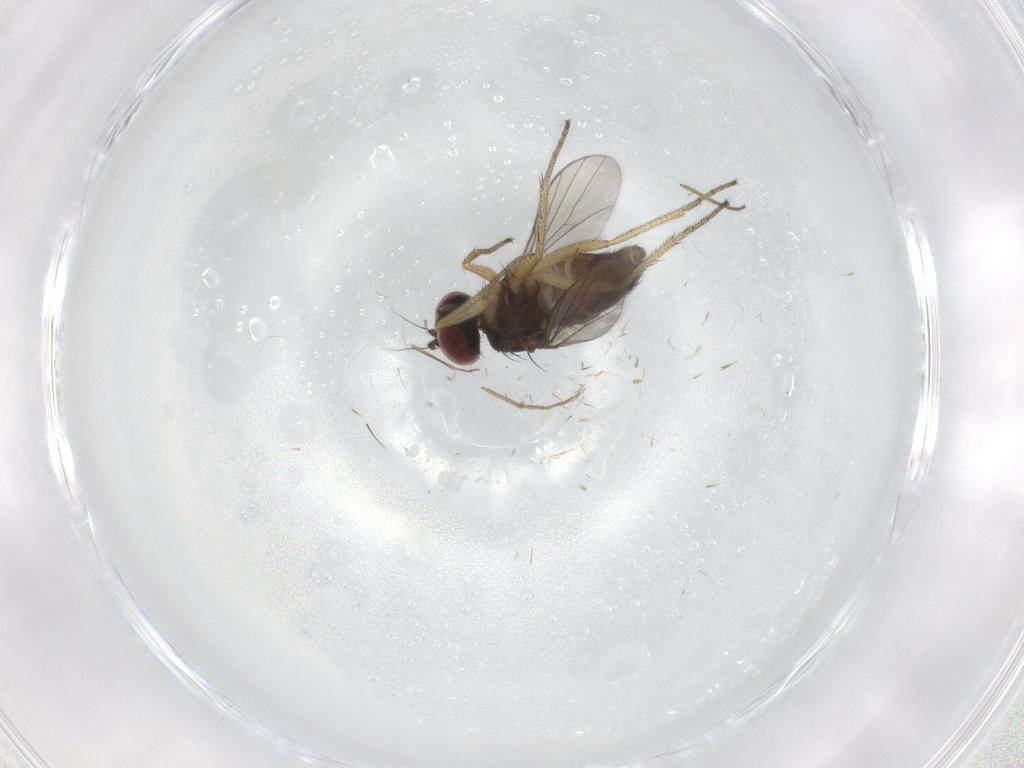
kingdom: Animalia
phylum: Arthropoda
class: Insecta
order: Diptera
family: Dolichopodidae
